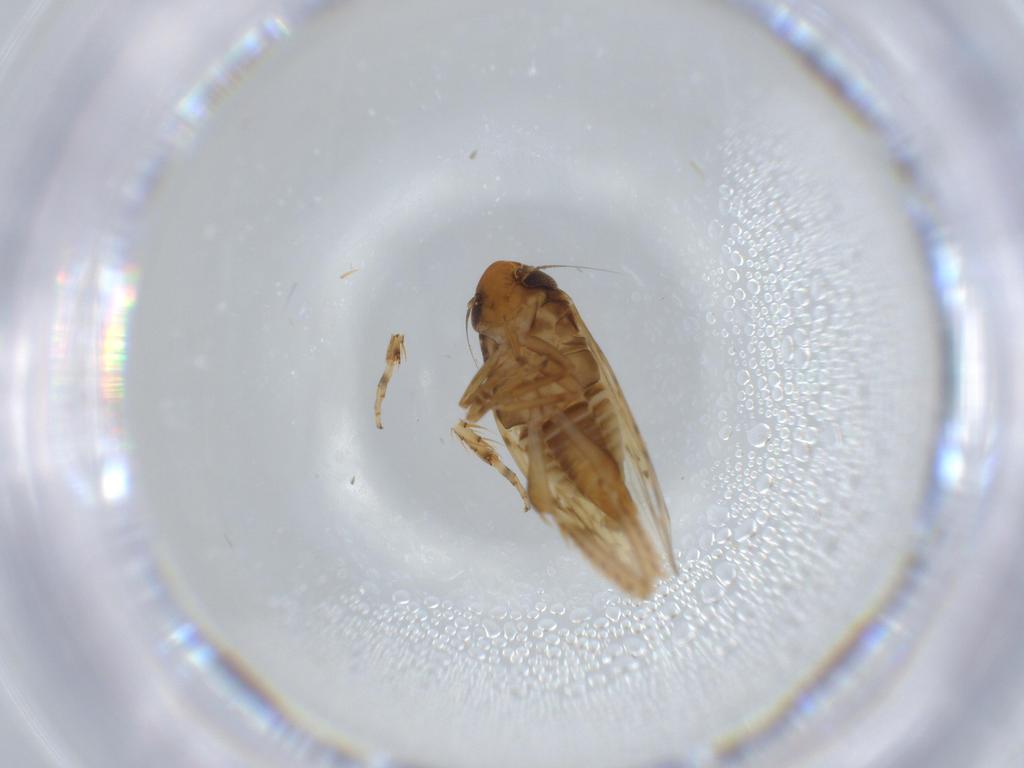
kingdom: Animalia
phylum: Arthropoda
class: Insecta
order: Hemiptera
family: Cicadellidae
